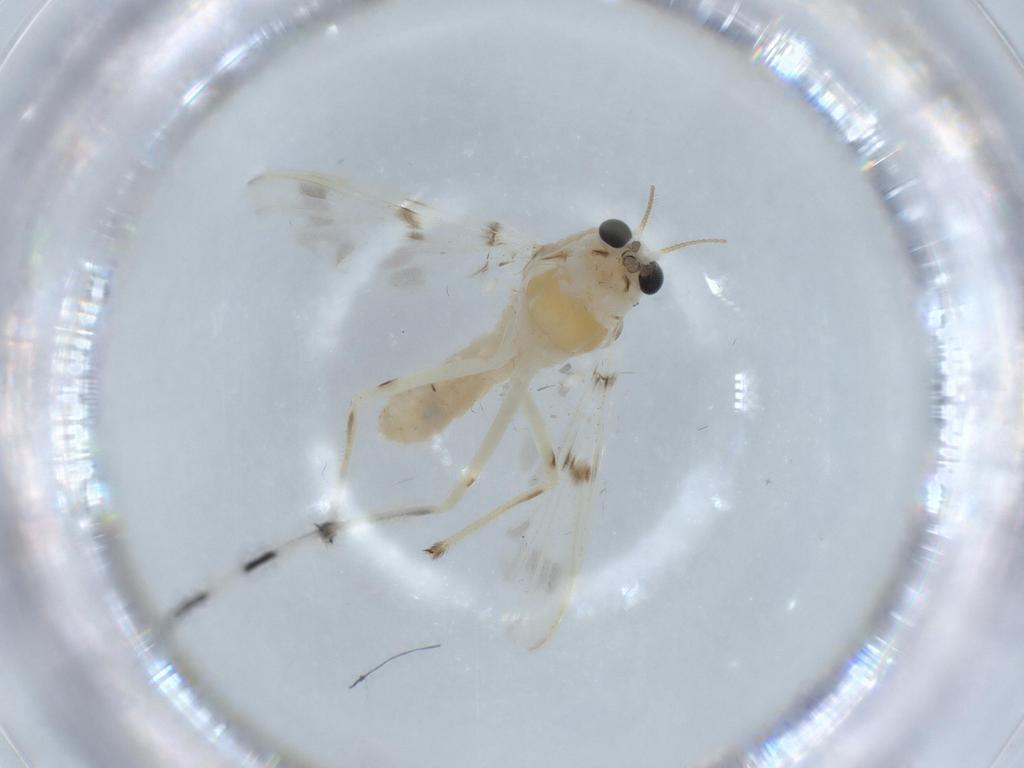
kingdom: Animalia
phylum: Arthropoda
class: Insecta
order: Diptera
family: Chironomidae
